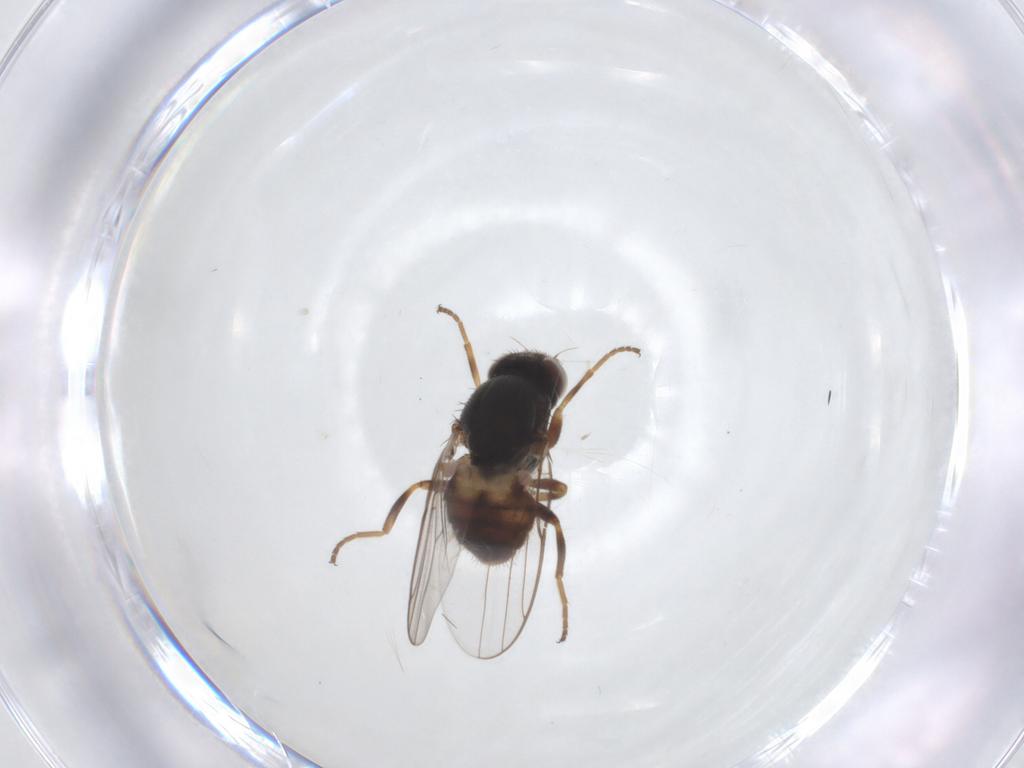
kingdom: Animalia
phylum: Arthropoda
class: Insecta
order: Diptera
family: Chloropidae
